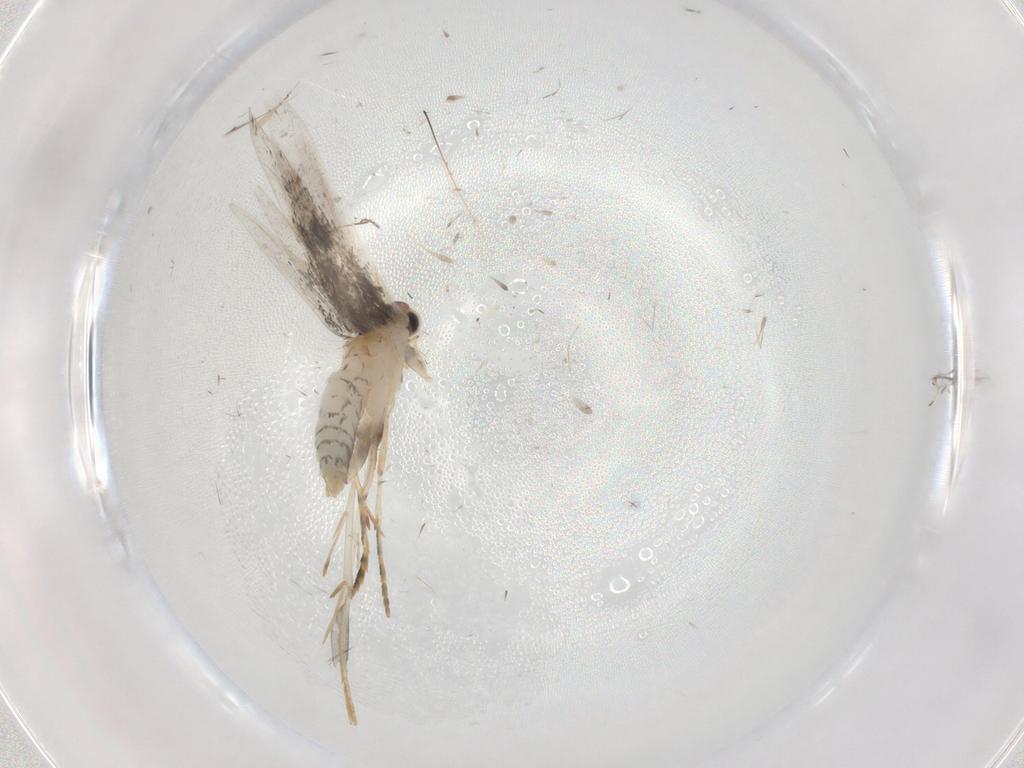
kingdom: Animalia
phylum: Arthropoda
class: Insecta
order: Lepidoptera
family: Tineidae
